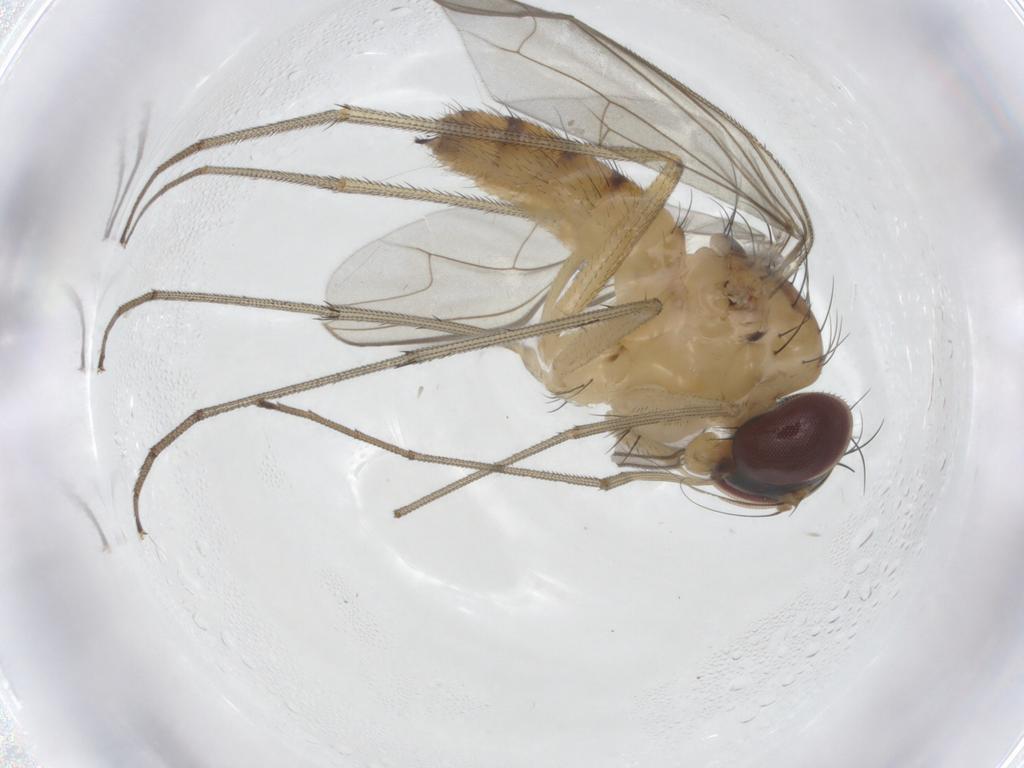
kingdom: Animalia
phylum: Arthropoda
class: Insecta
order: Diptera
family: Dolichopodidae
